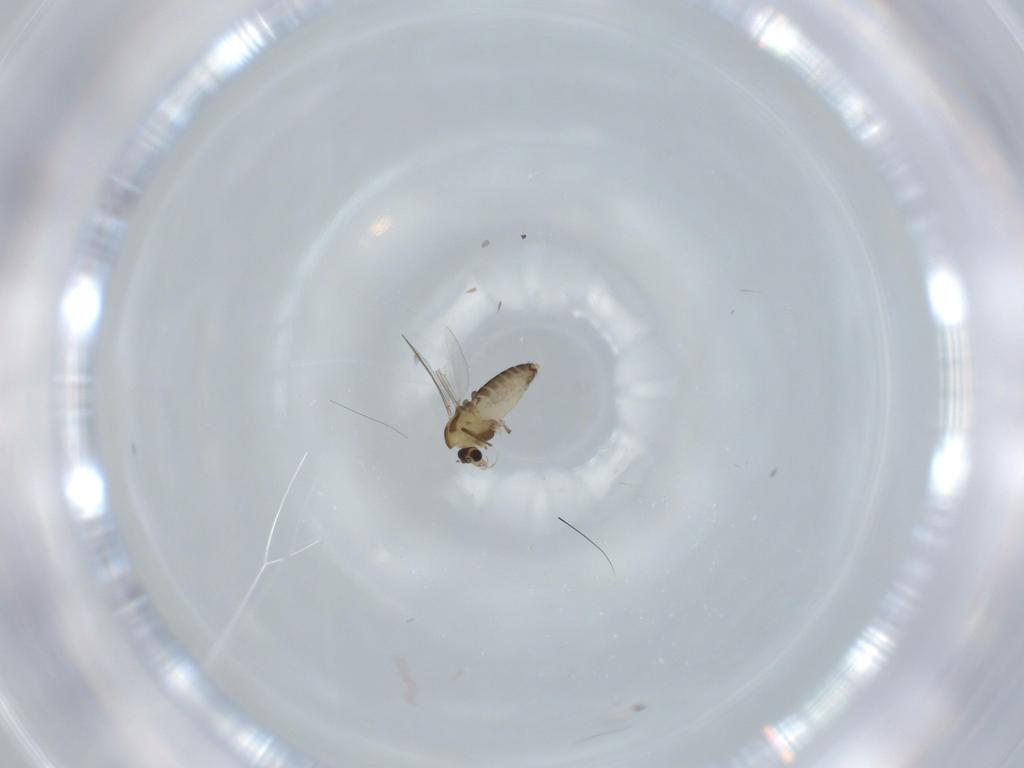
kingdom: Animalia
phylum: Arthropoda
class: Insecta
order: Diptera
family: Chironomidae
